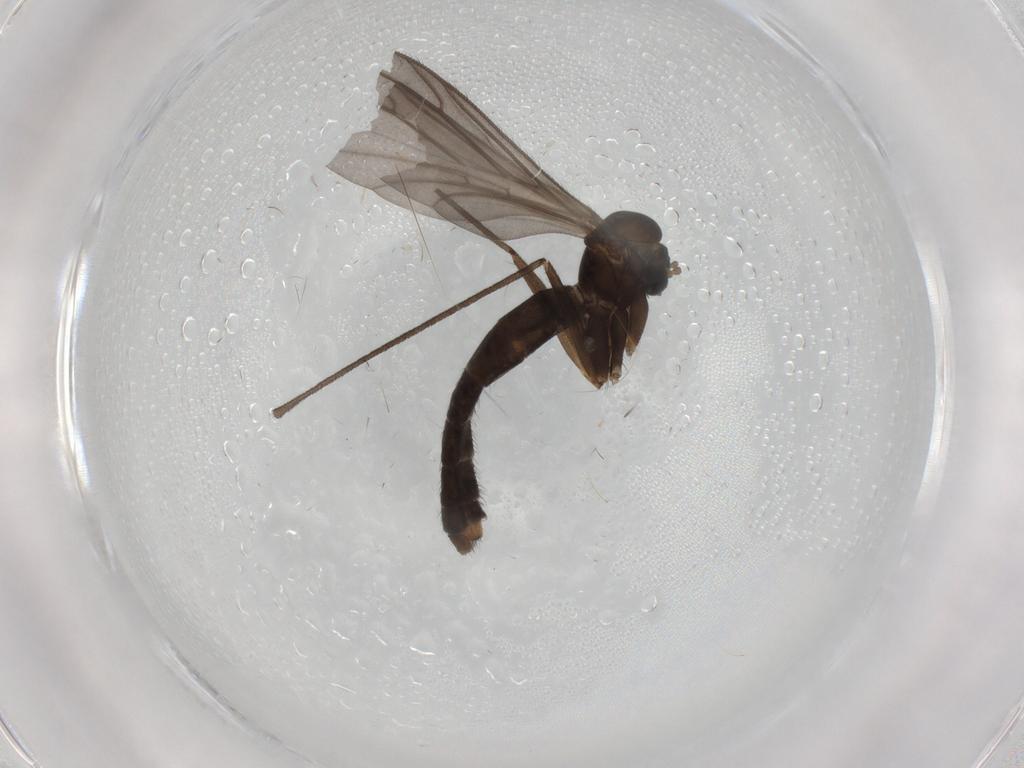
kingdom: Animalia
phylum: Arthropoda
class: Insecta
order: Diptera
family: Keroplatidae
